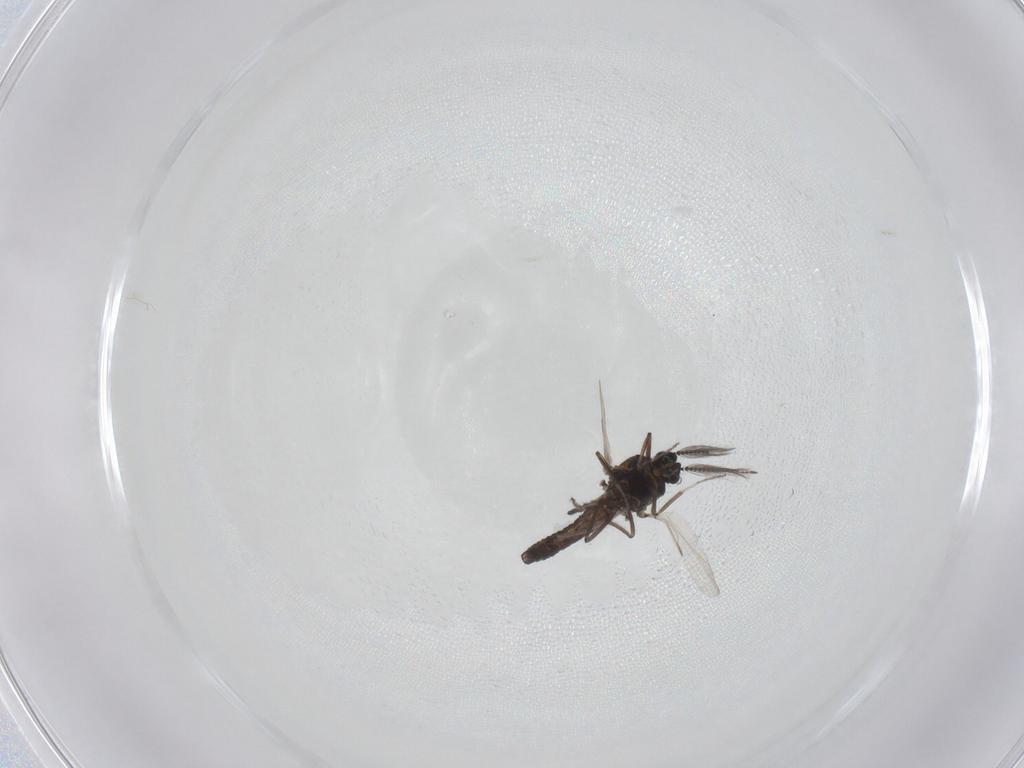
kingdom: Animalia
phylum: Arthropoda
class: Insecta
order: Diptera
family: Ceratopogonidae
